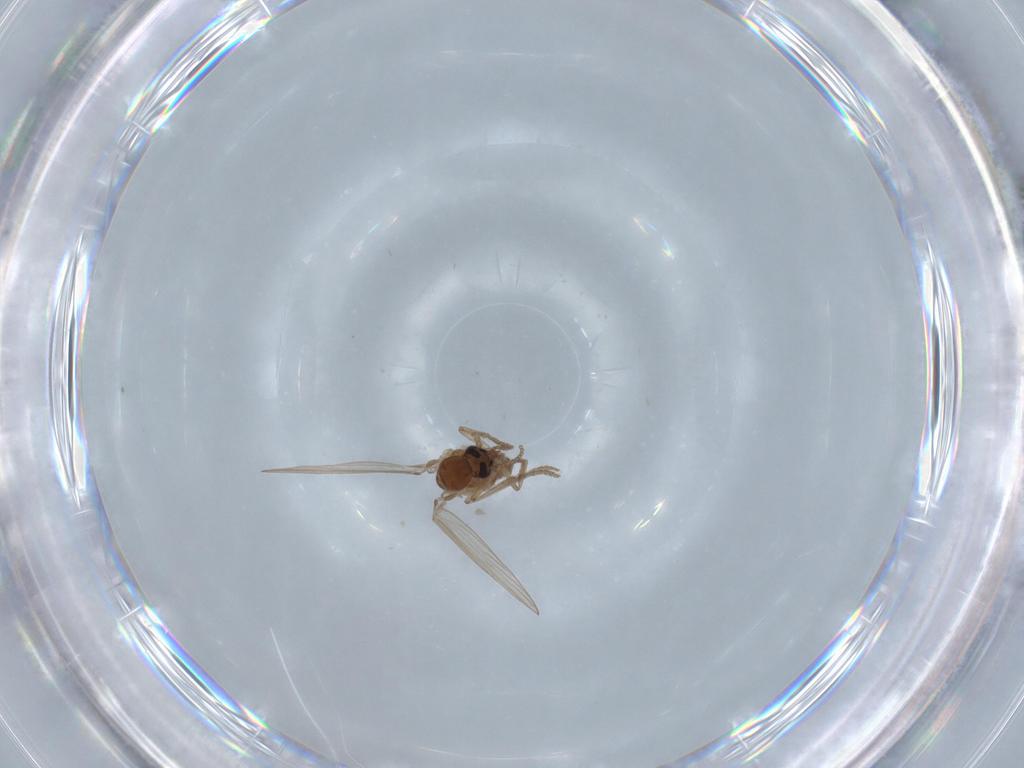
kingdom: Animalia
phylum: Arthropoda
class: Insecta
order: Diptera
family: Psychodidae
